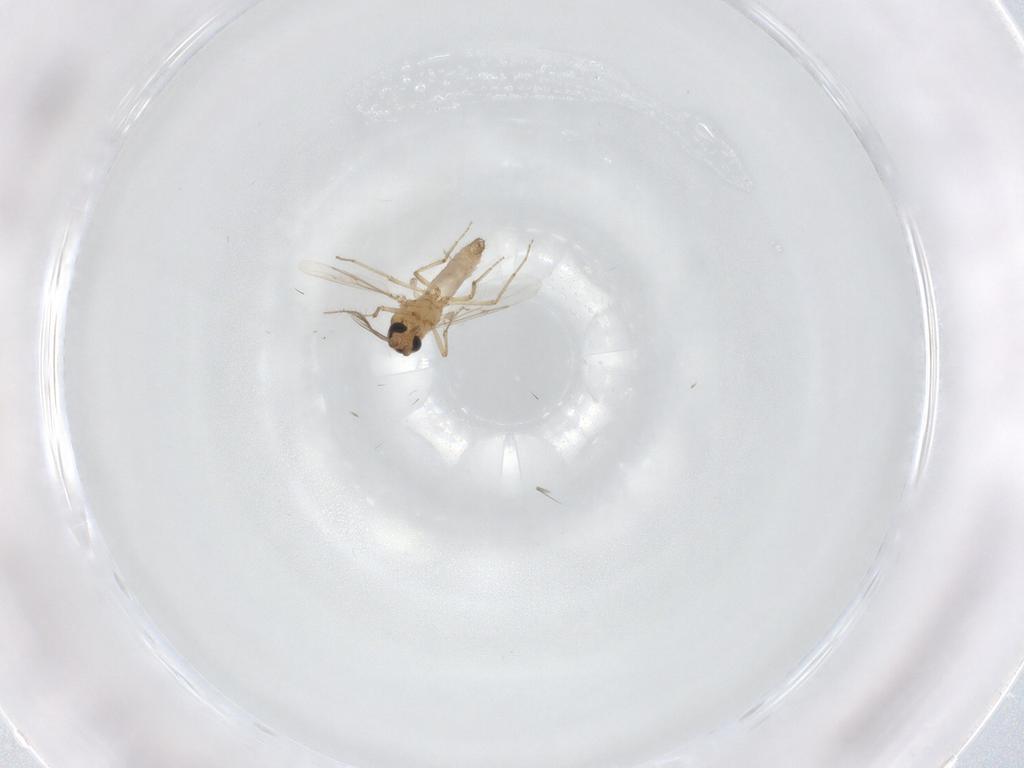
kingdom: Animalia
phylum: Arthropoda
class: Insecta
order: Diptera
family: Ceratopogonidae
